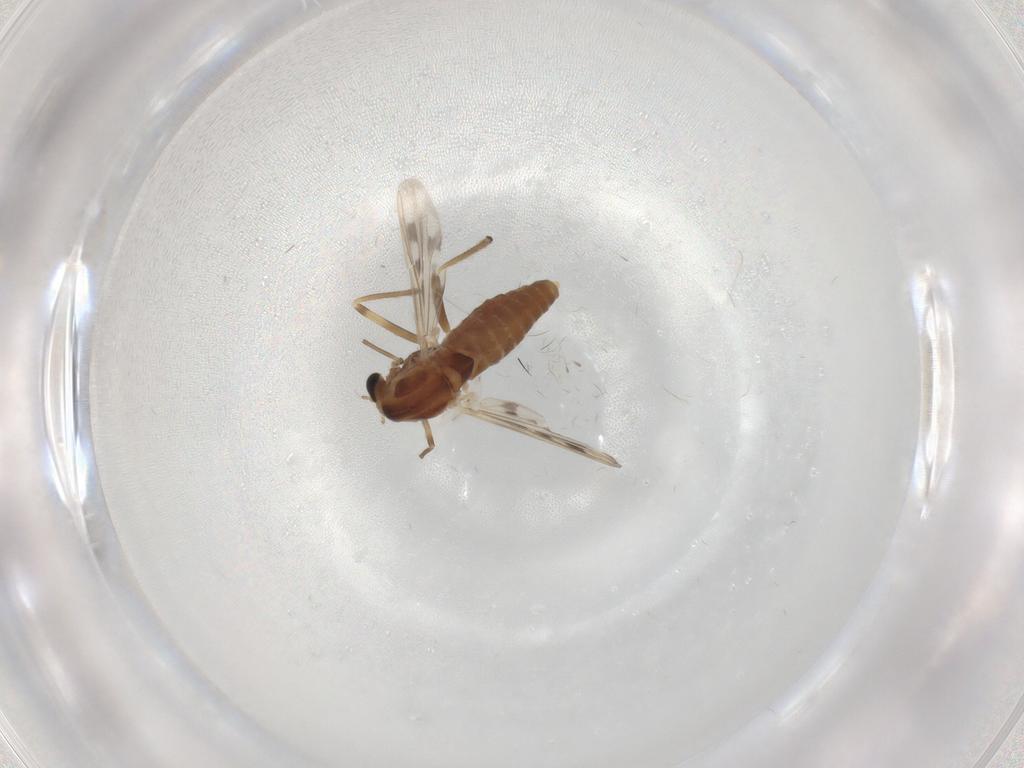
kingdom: Animalia
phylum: Arthropoda
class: Insecta
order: Diptera
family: Chironomidae
